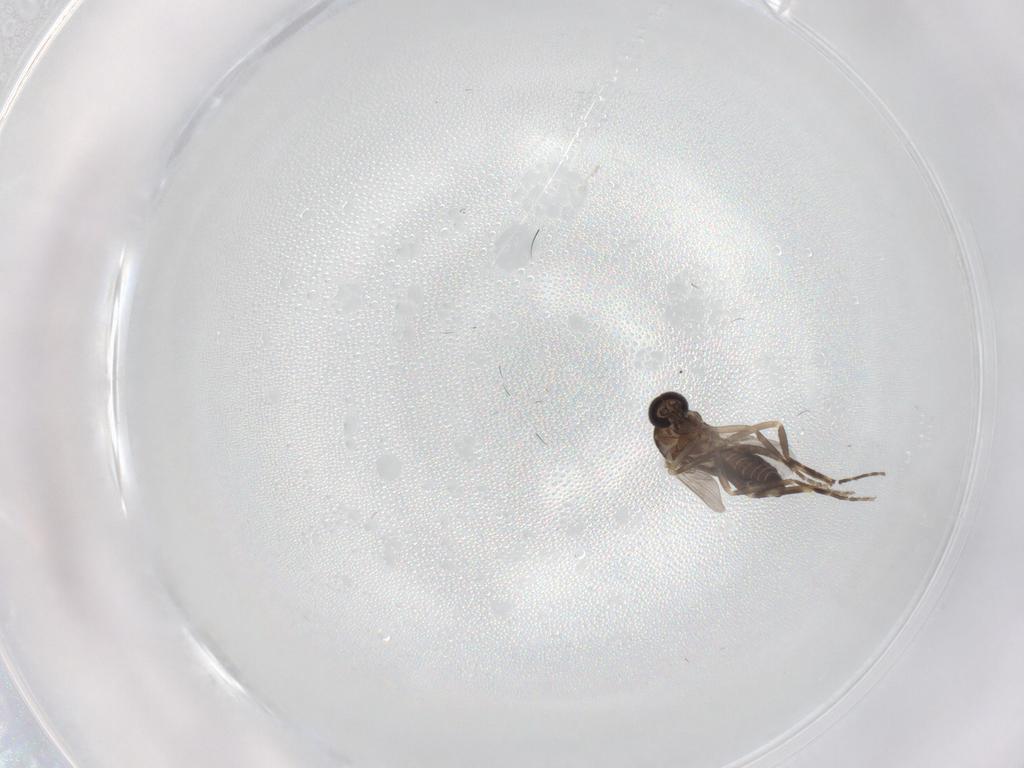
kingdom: Animalia
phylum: Arthropoda
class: Insecta
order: Diptera
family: Ceratopogonidae
